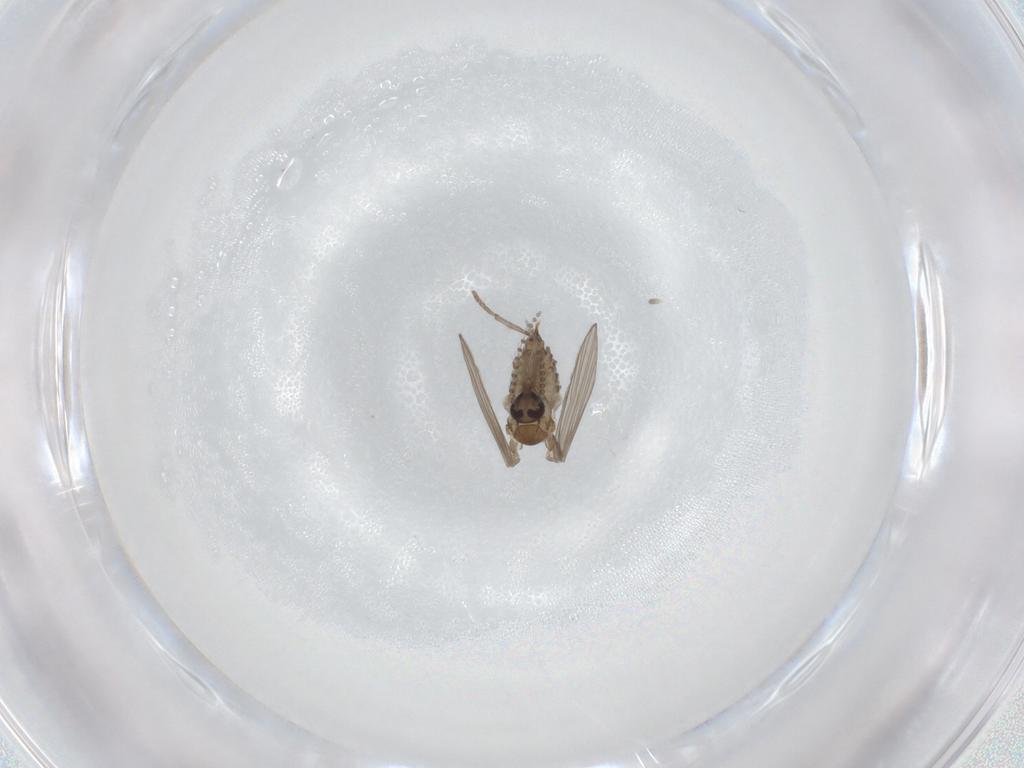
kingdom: Animalia
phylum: Arthropoda
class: Insecta
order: Diptera
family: Psychodidae
